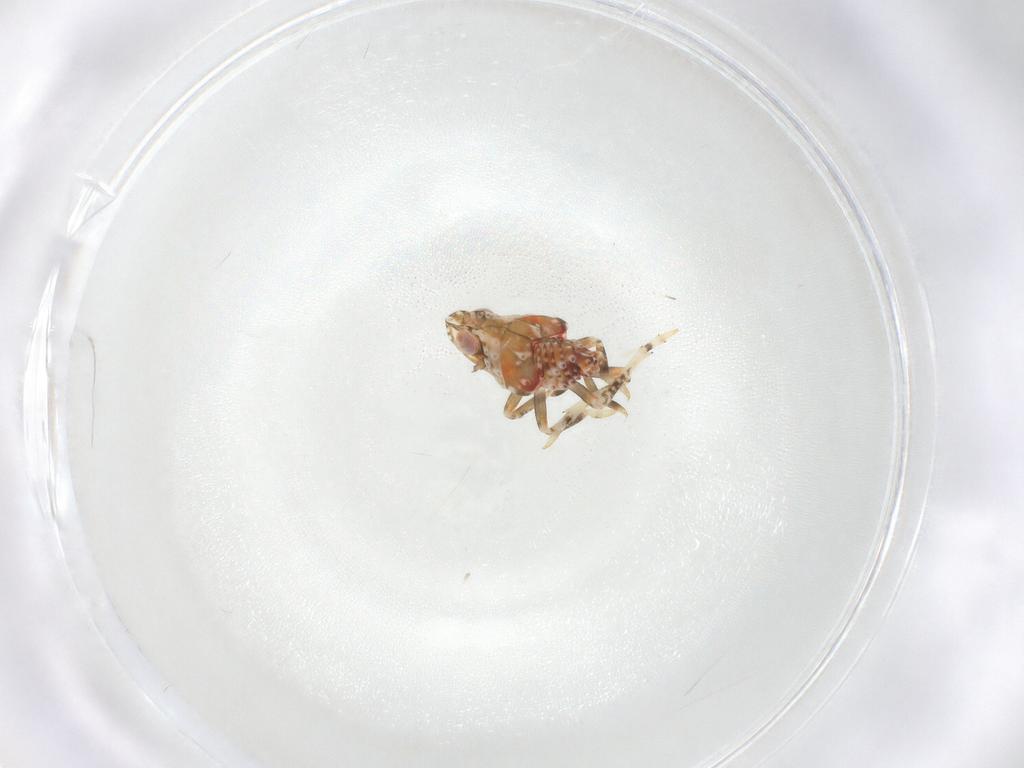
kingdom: Animalia
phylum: Arthropoda
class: Insecta
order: Hemiptera
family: Tropiduchidae
